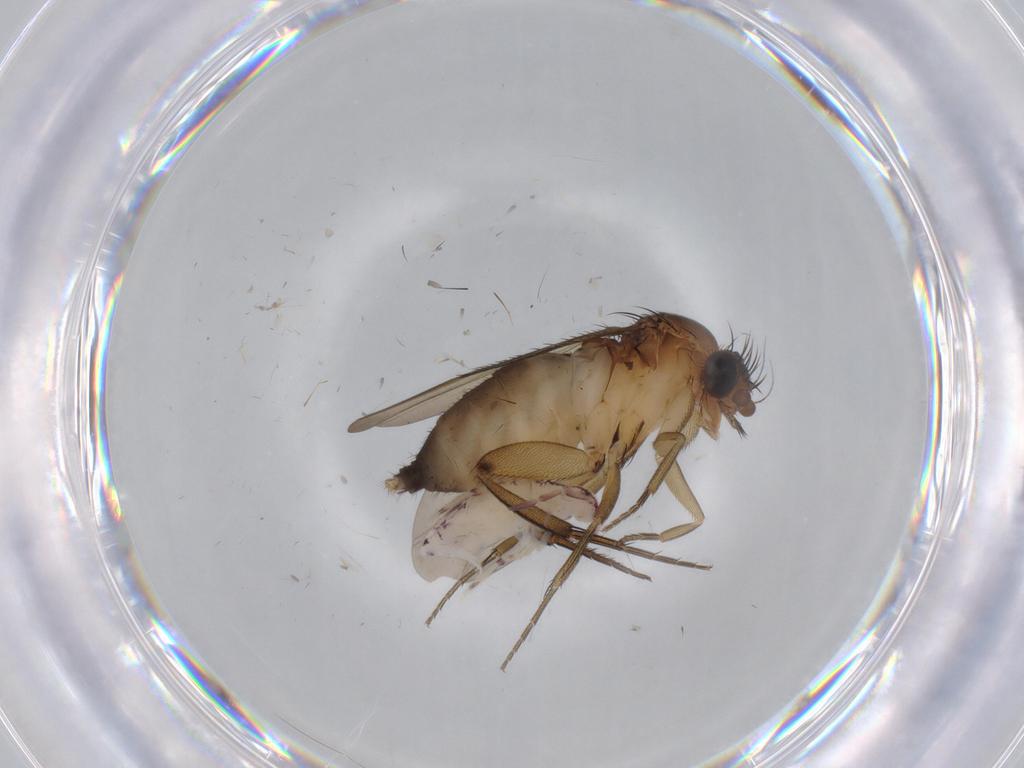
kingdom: Animalia
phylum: Arthropoda
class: Insecta
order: Diptera
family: Phoridae
